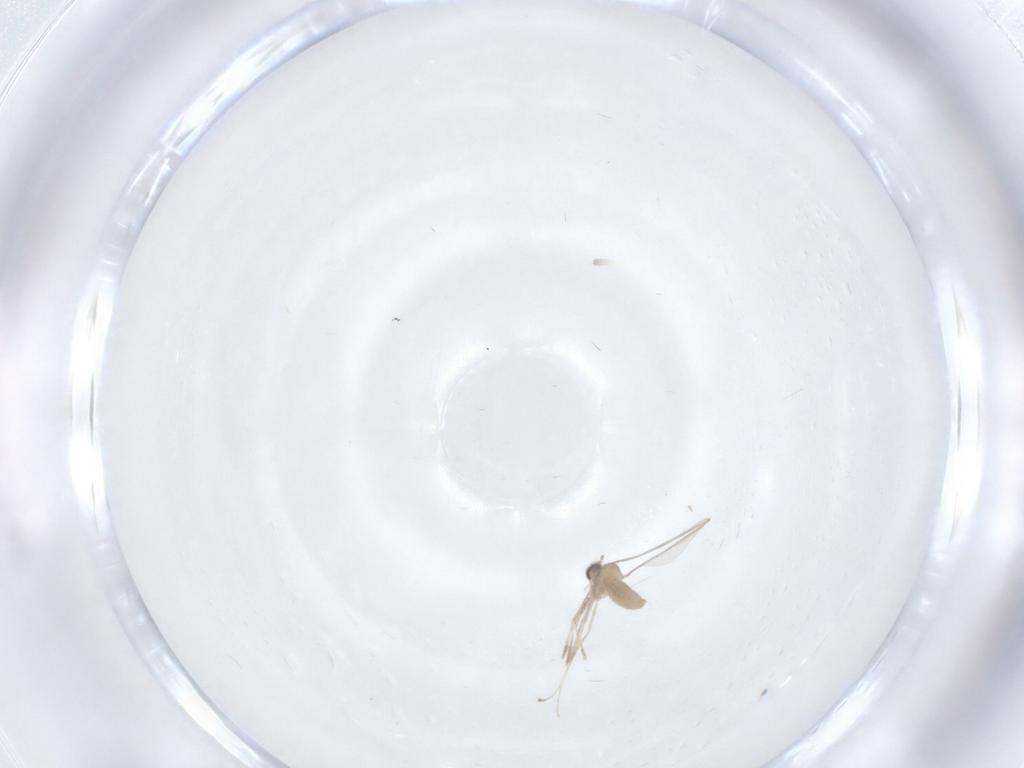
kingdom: Animalia
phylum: Arthropoda
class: Insecta
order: Diptera
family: Cecidomyiidae
